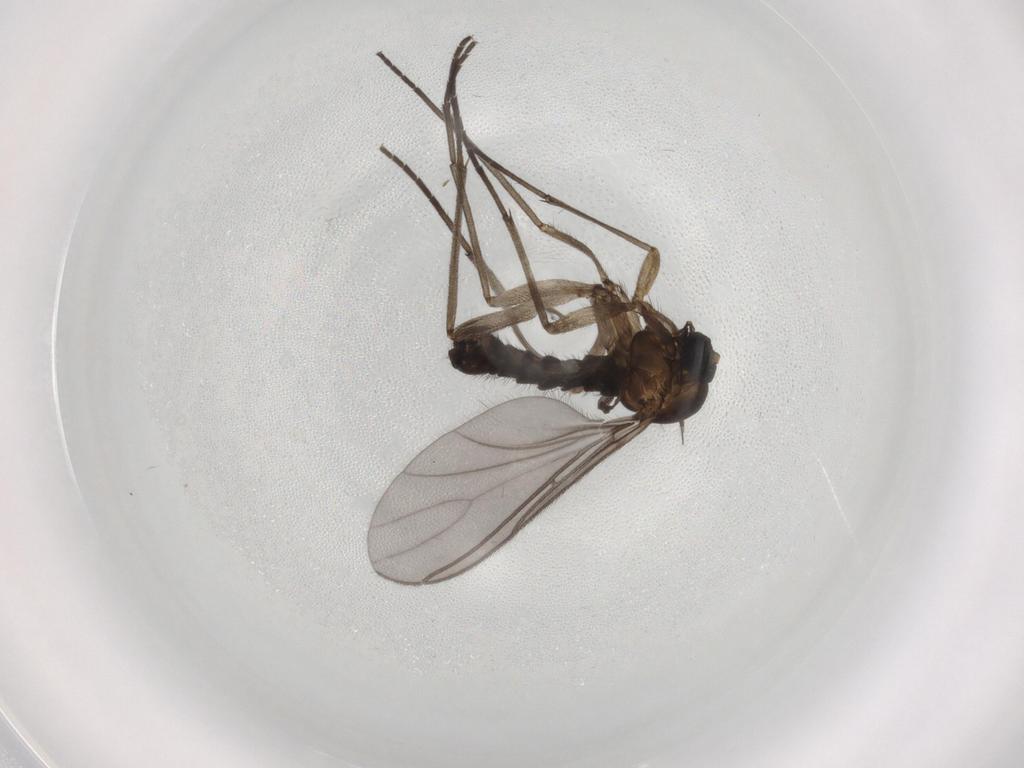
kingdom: Animalia
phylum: Arthropoda
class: Insecta
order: Diptera
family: Sciaridae
